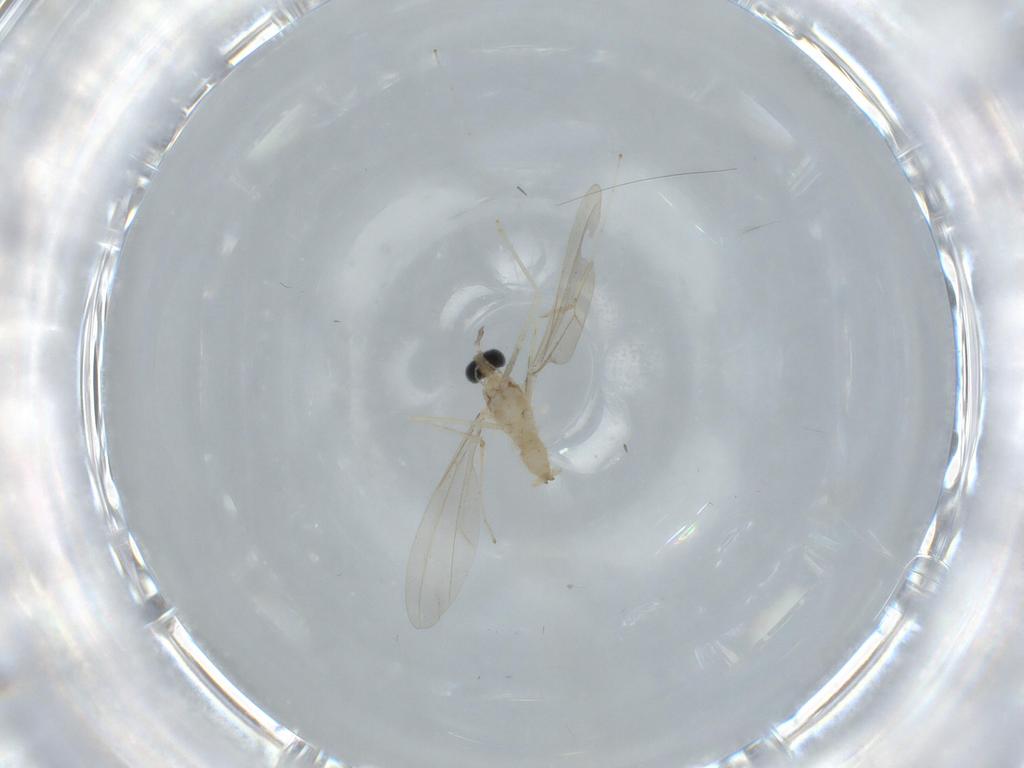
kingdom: Animalia
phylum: Arthropoda
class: Insecta
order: Diptera
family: Cecidomyiidae
